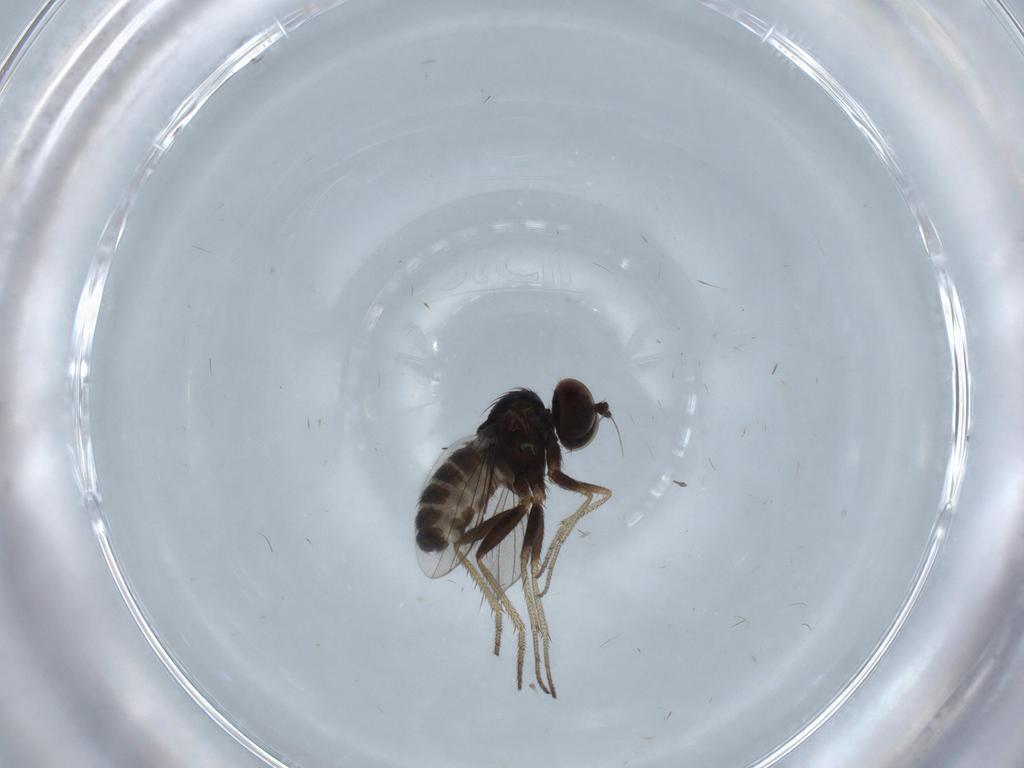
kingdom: Animalia
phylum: Arthropoda
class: Insecta
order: Diptera
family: Dolichopodidae
